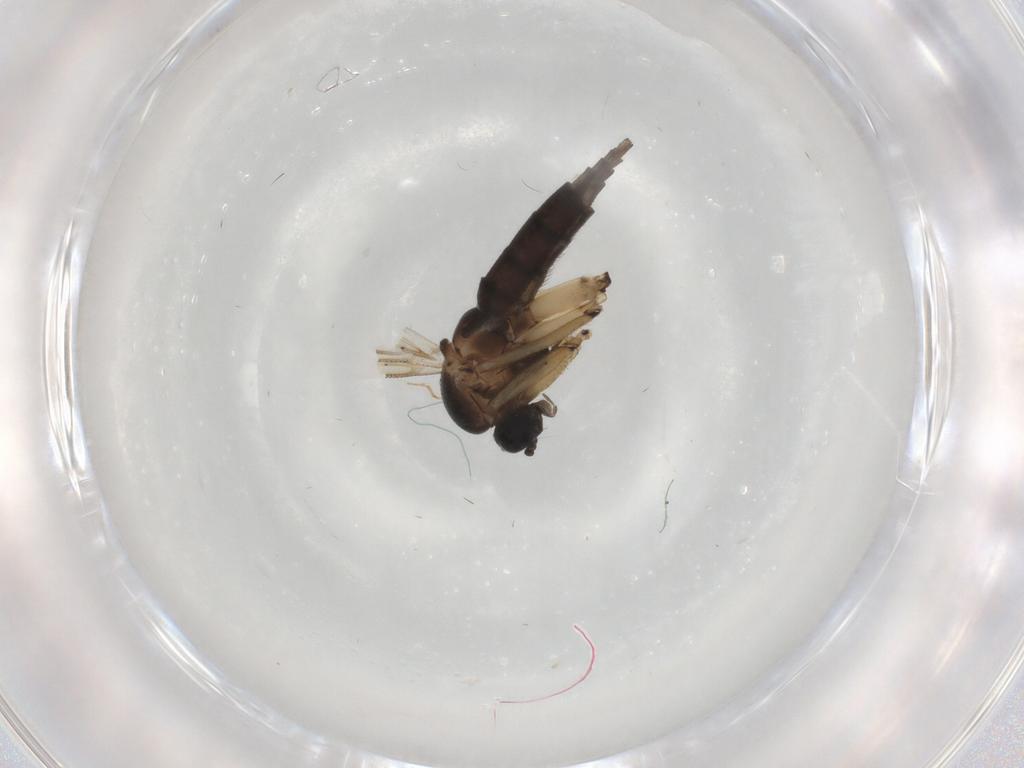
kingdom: Animalia
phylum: Arthropoda
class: Insecta
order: Diptera
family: Sciaridae
